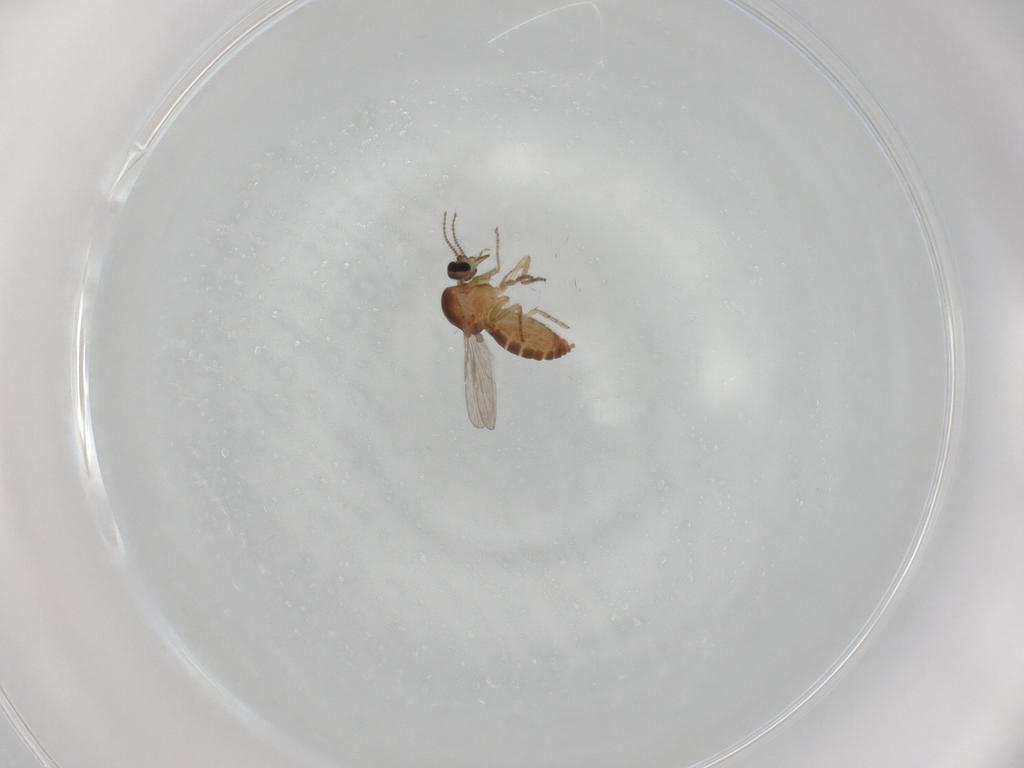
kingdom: Animalia
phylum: Arthropoda
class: Insecta
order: Diptera
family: Ceratopogonidae
